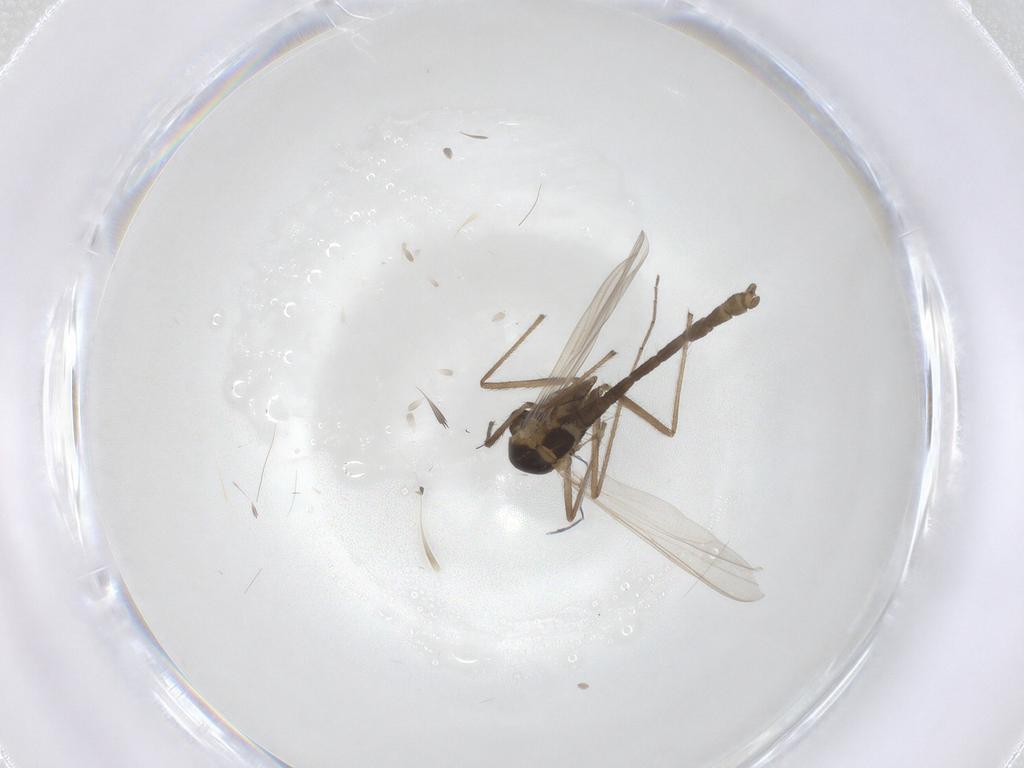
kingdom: Animalia
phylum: Arthropoda
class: Insecta
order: Diptera
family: Chironomidae
